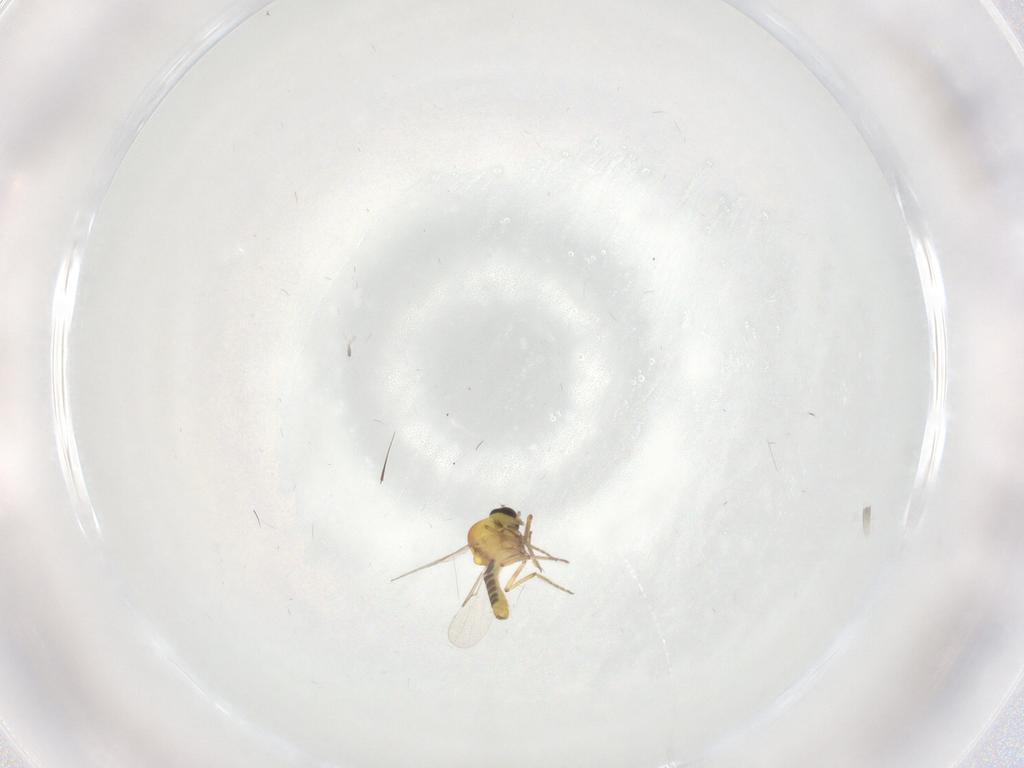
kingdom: Animalia
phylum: Arthropoda
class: Insecta
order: Diptera
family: Ceratopogonidae
